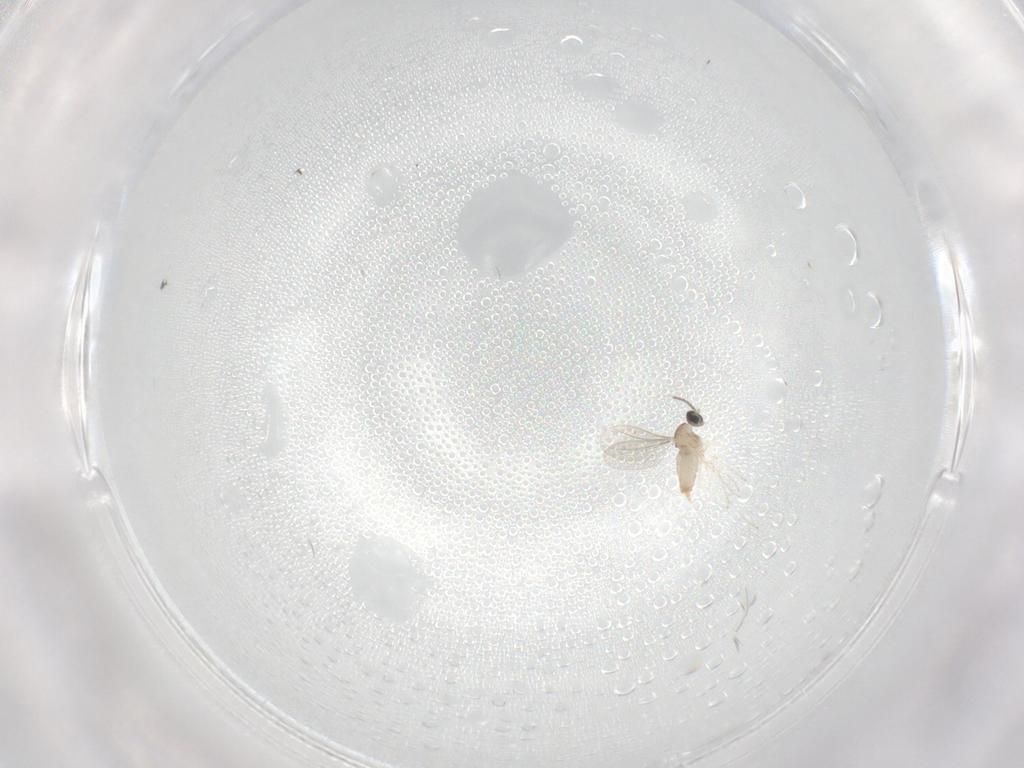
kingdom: Animalia
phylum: Arthropoda
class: Insecta
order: Diptera
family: Cecidomyiidae
